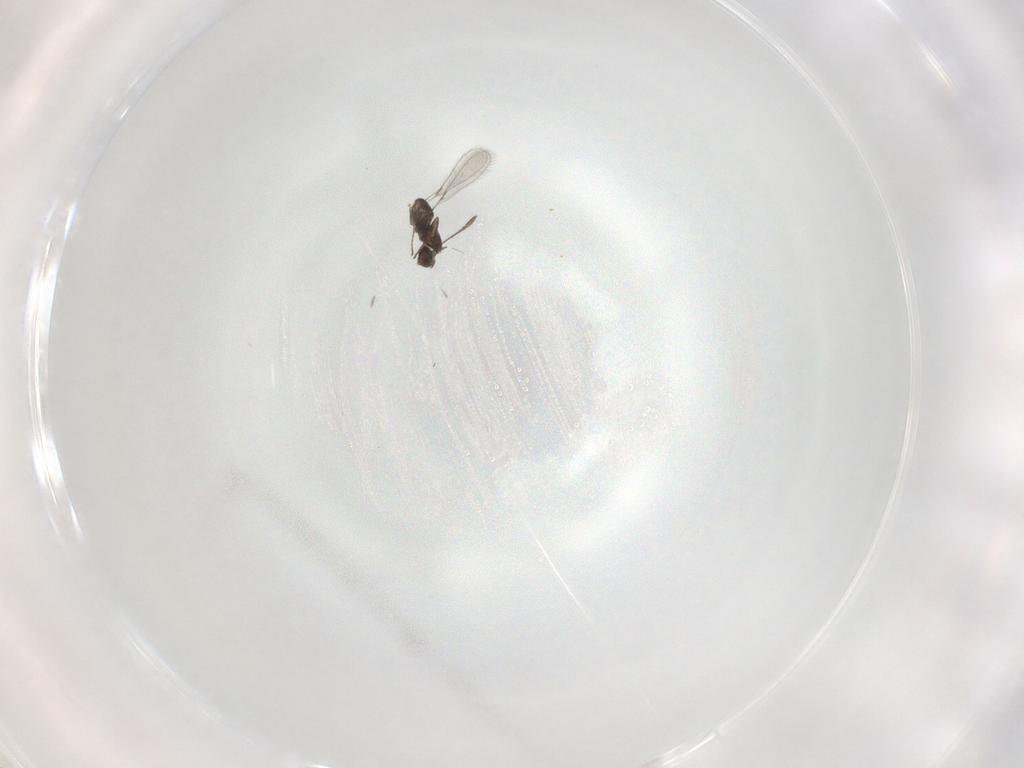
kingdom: Animalia
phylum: Arthropoda
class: Insecta
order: Hymenoptera
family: Mymaridae
